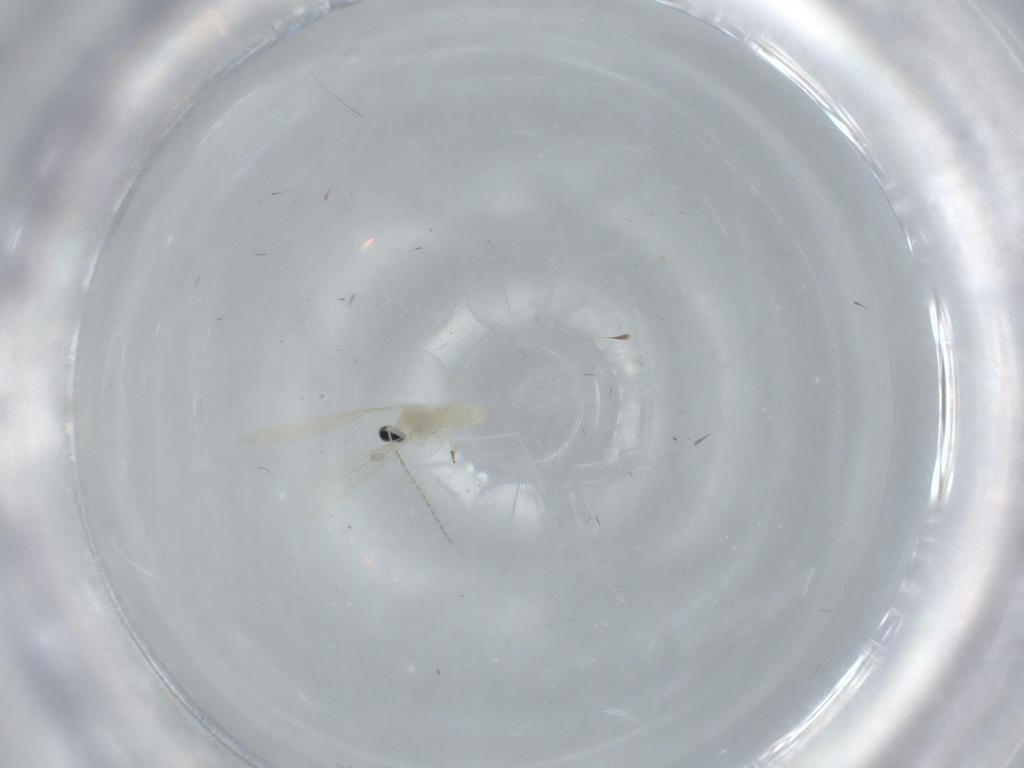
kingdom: Animalia
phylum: Arthropoda
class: Insecta
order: Diptera
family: Cecidomyiidae
